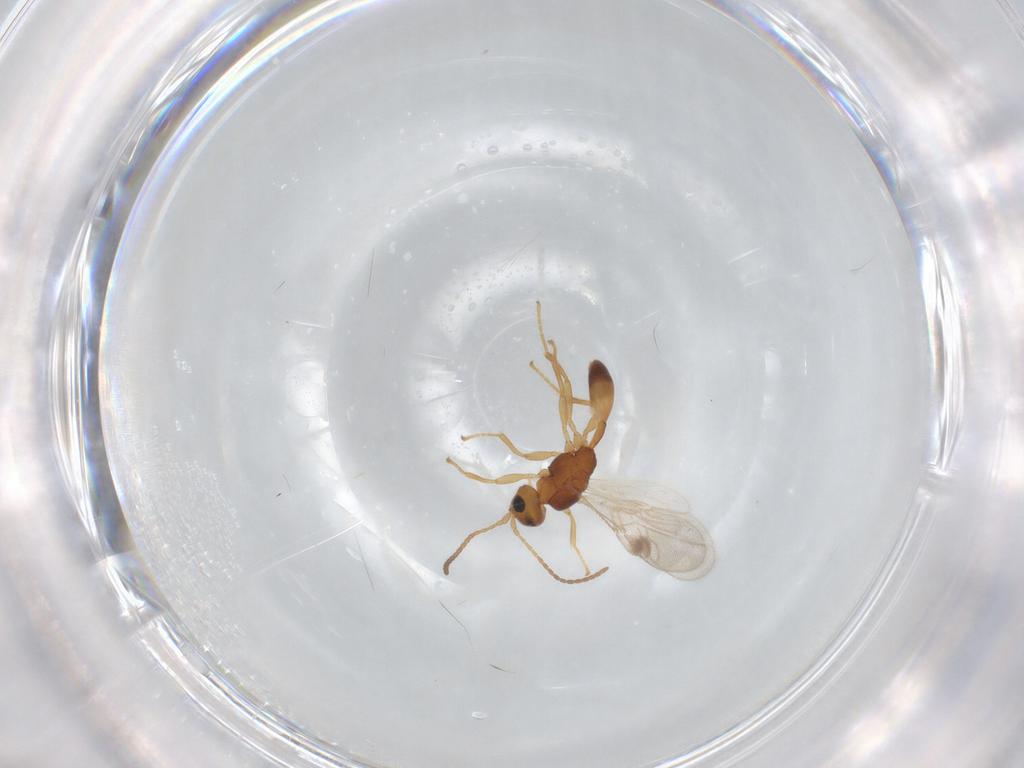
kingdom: Animalia
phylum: Arthropoda
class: Insecta
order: Hymenoptera
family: Braconidae
